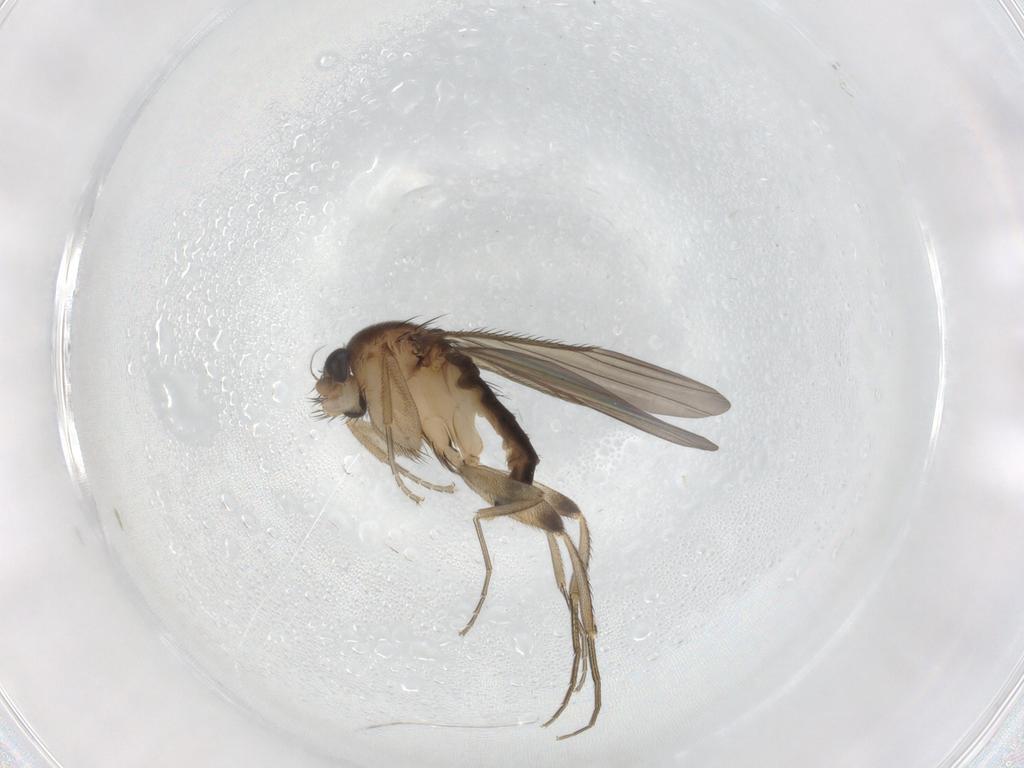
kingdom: Animalia
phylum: Arthropoda
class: Insecta
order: Diptera
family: Phoridae
